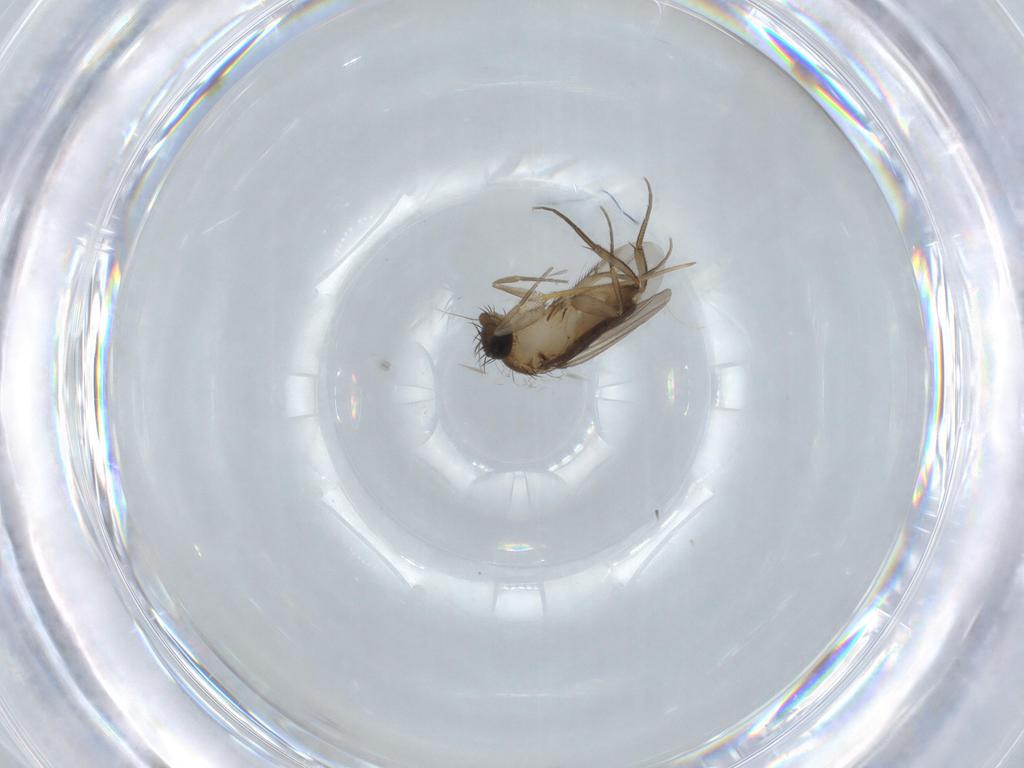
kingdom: Animalia
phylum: Arthropoda
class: Insecta
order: Diptera
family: Phoridae
